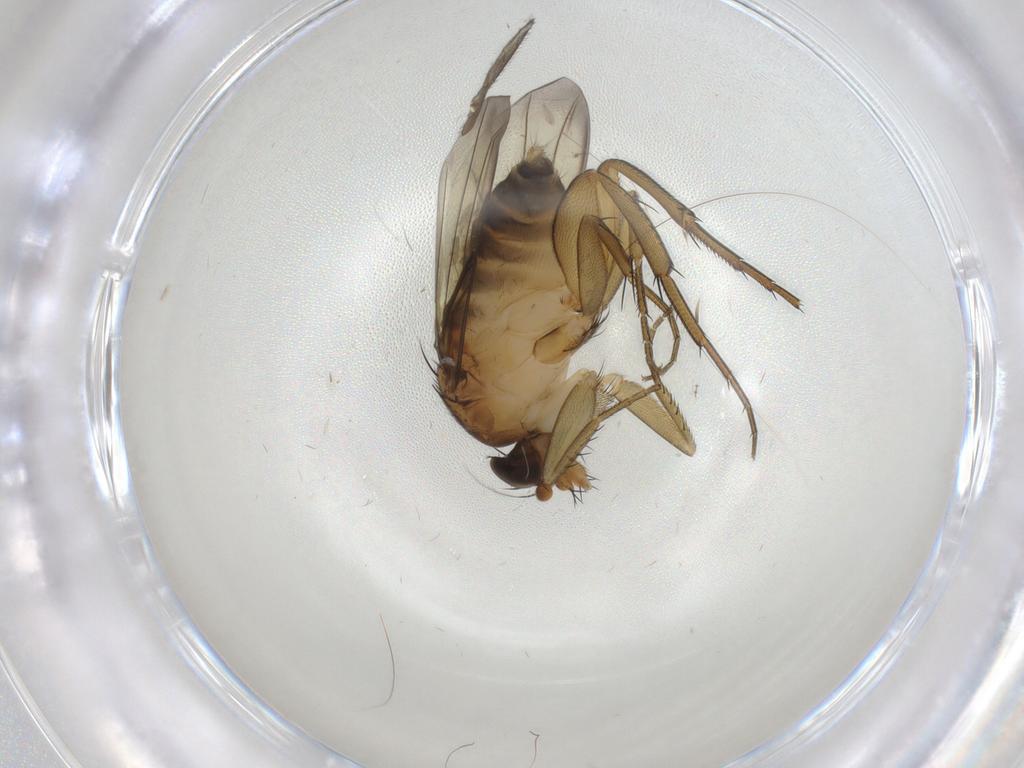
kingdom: Animalia
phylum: Arthropoda
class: Insecta
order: Diptera
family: Phoridae
